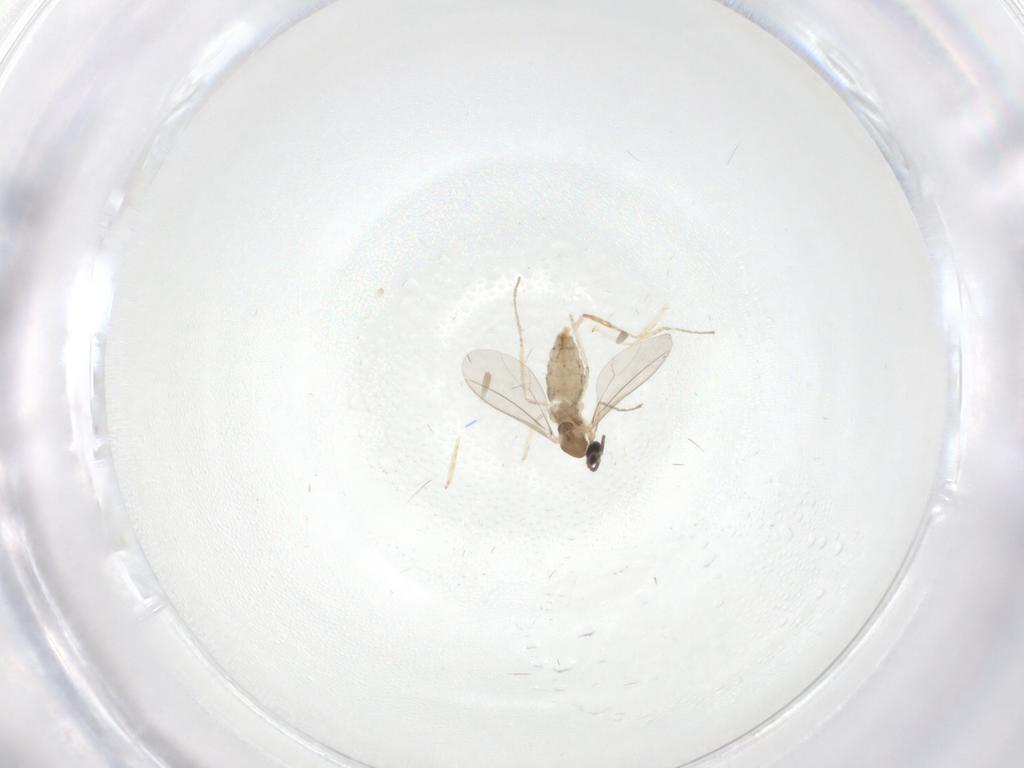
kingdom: Animalia
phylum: Arthropoda
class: Insecta
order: Diptera
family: Cecidomyiidae
